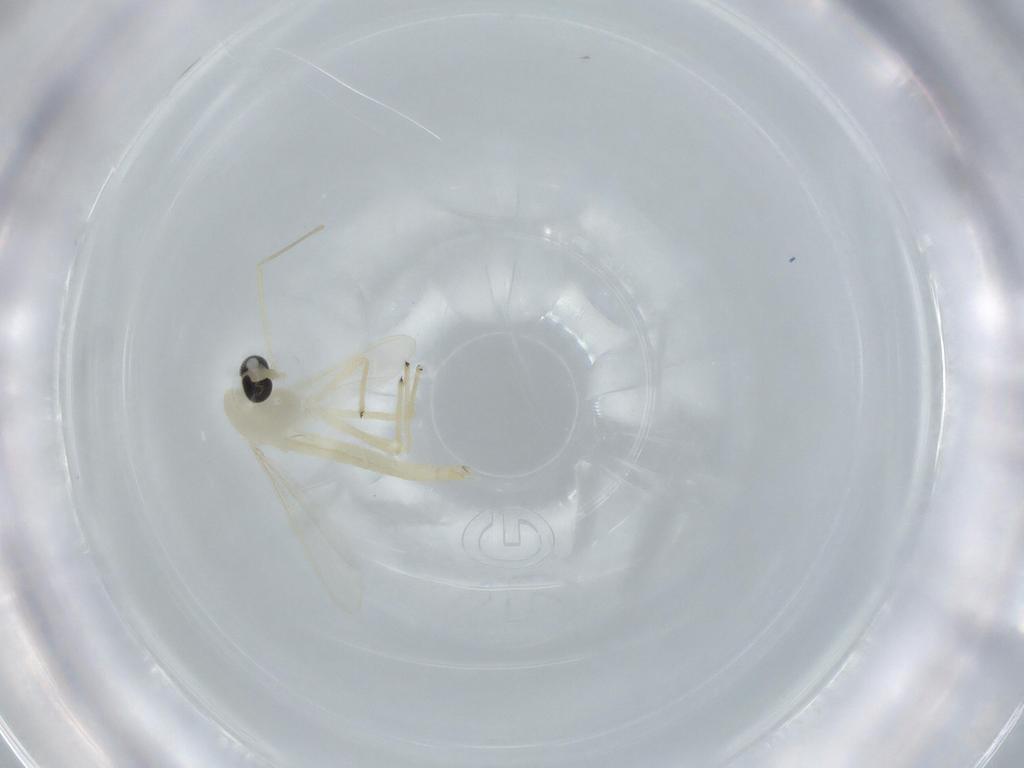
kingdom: Animalia
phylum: Arthropoda
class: Insecta
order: Diptera
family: Chironomidae
